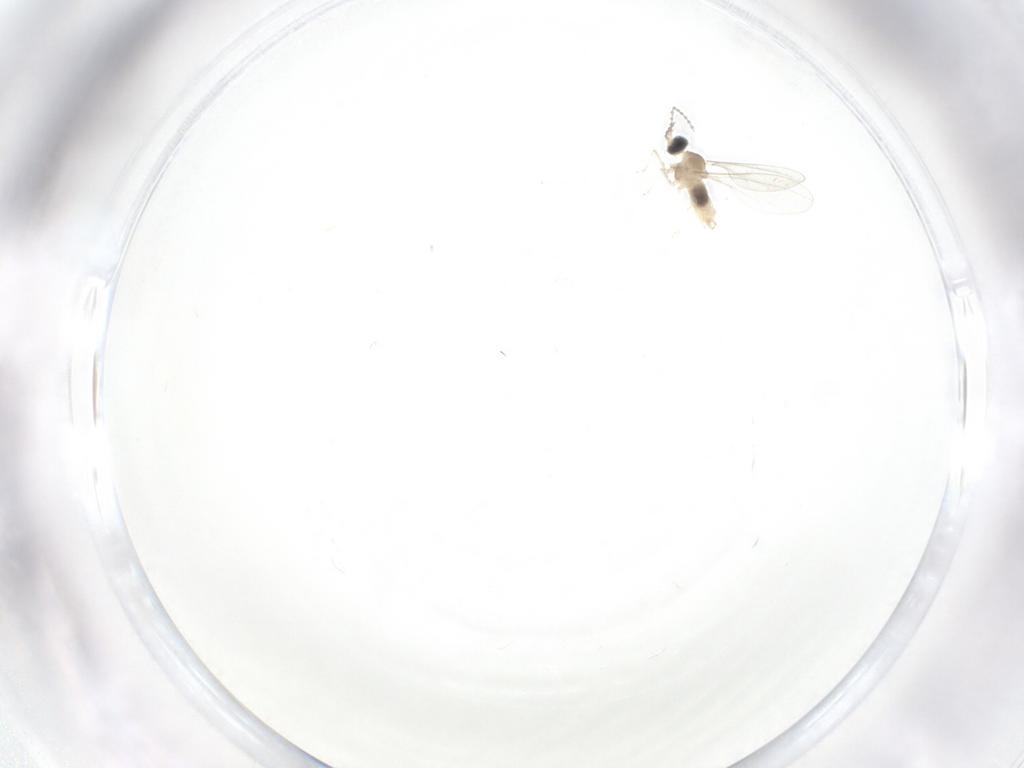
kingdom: Animalia
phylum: Arthropoda
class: Insecta
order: Diptera
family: Cecidomyiidae
